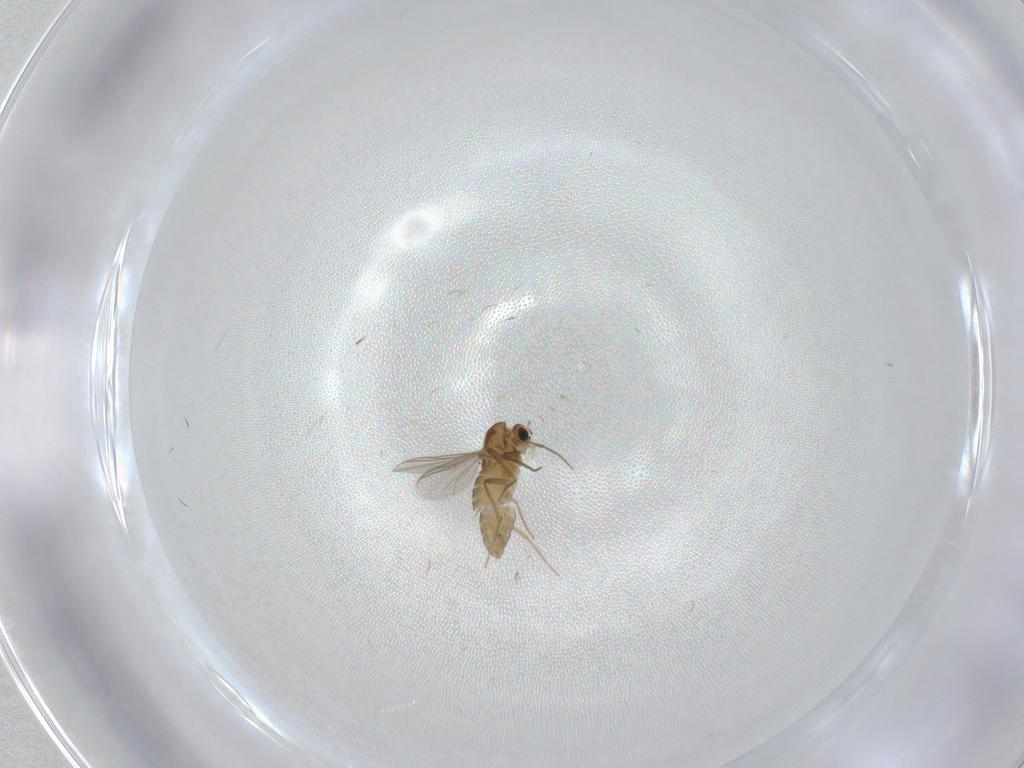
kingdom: Animalia
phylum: Arthropoda
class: Insecta
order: Diptera
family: Chironomidae
